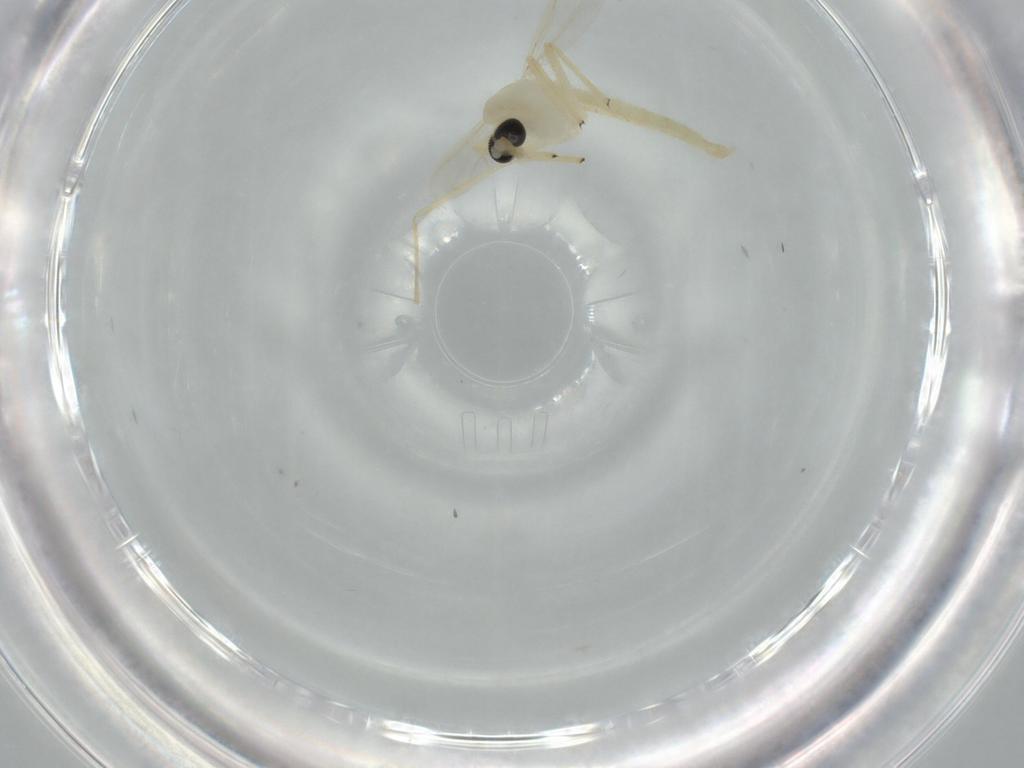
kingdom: Animalia
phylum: Arthropoda
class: Insecta
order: Diptera
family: Chironomidae
